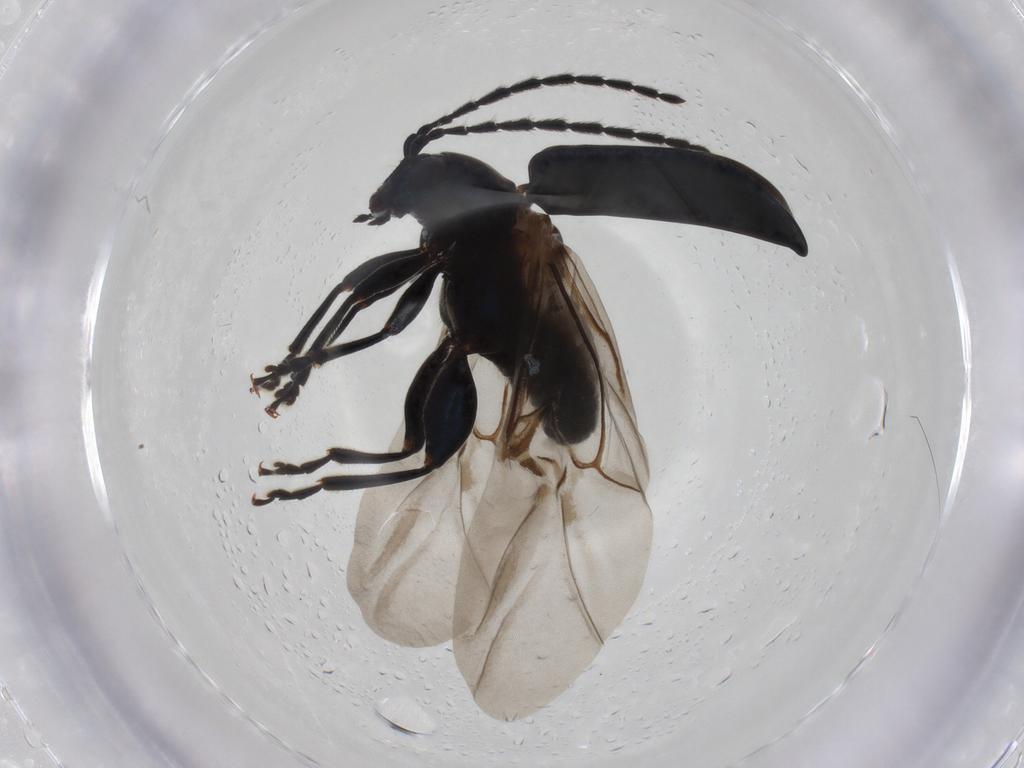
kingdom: Animalia
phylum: Arthropoda
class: Insecta
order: Coleoptera
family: Chrysomelidae
